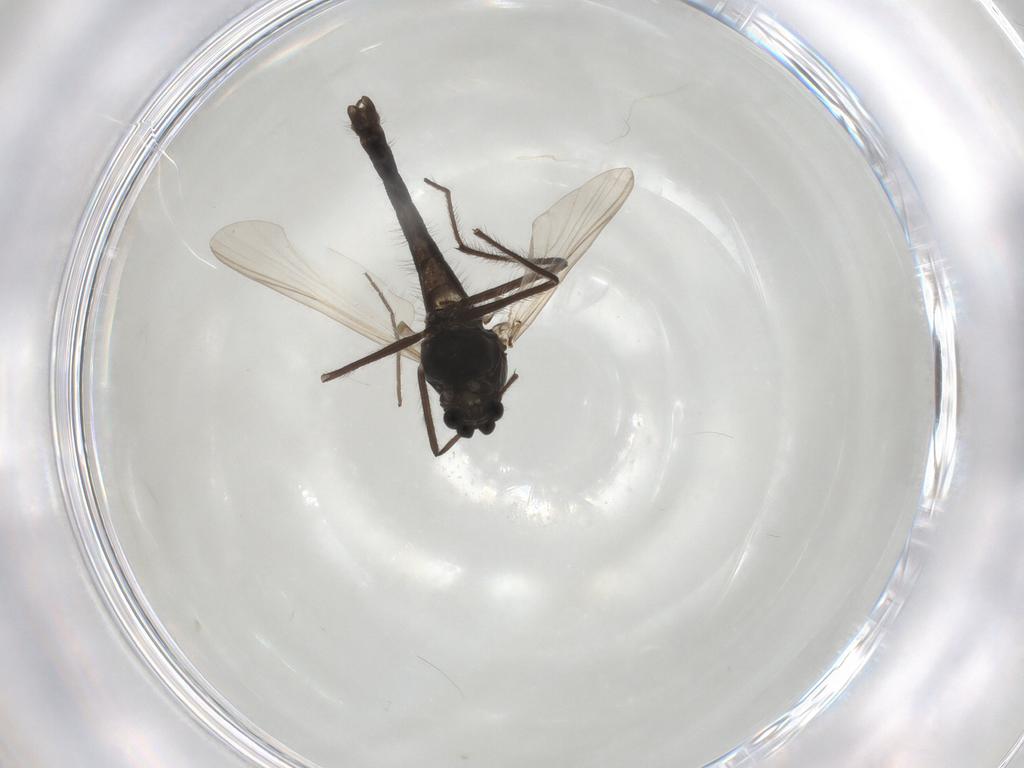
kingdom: Animalia
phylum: Arthropoda
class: Insecta
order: Diptera
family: Chironomidae
